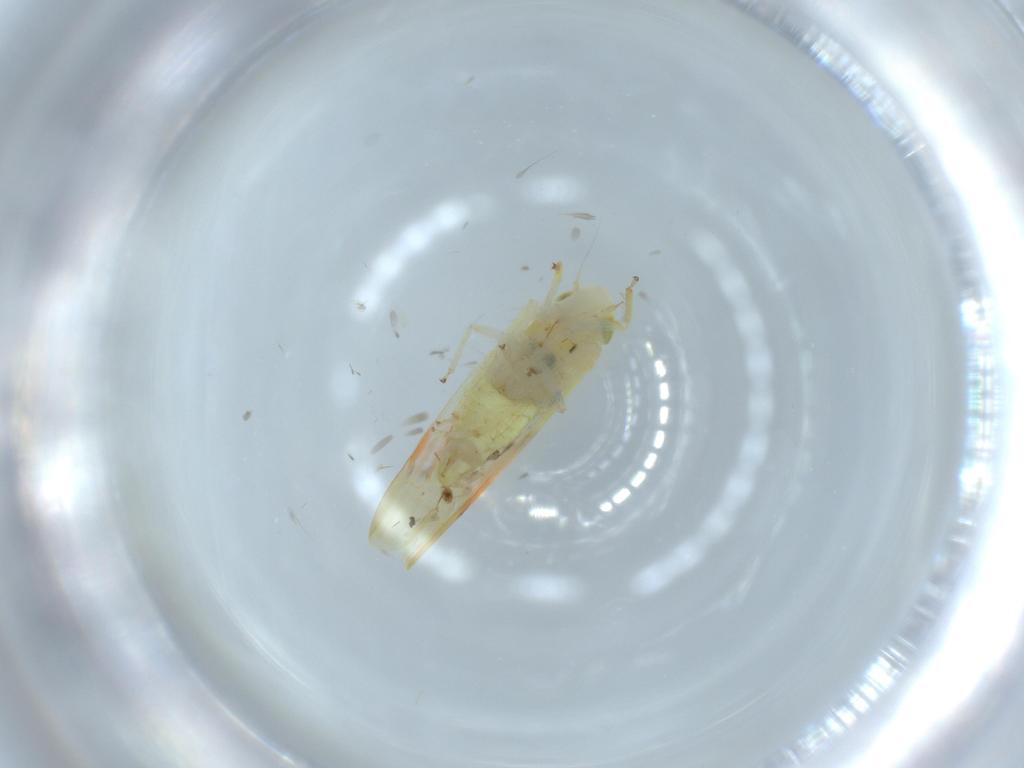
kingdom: Animalia
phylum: Arthropoda
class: Insecta
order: Hemiptera
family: Cicadellidae
